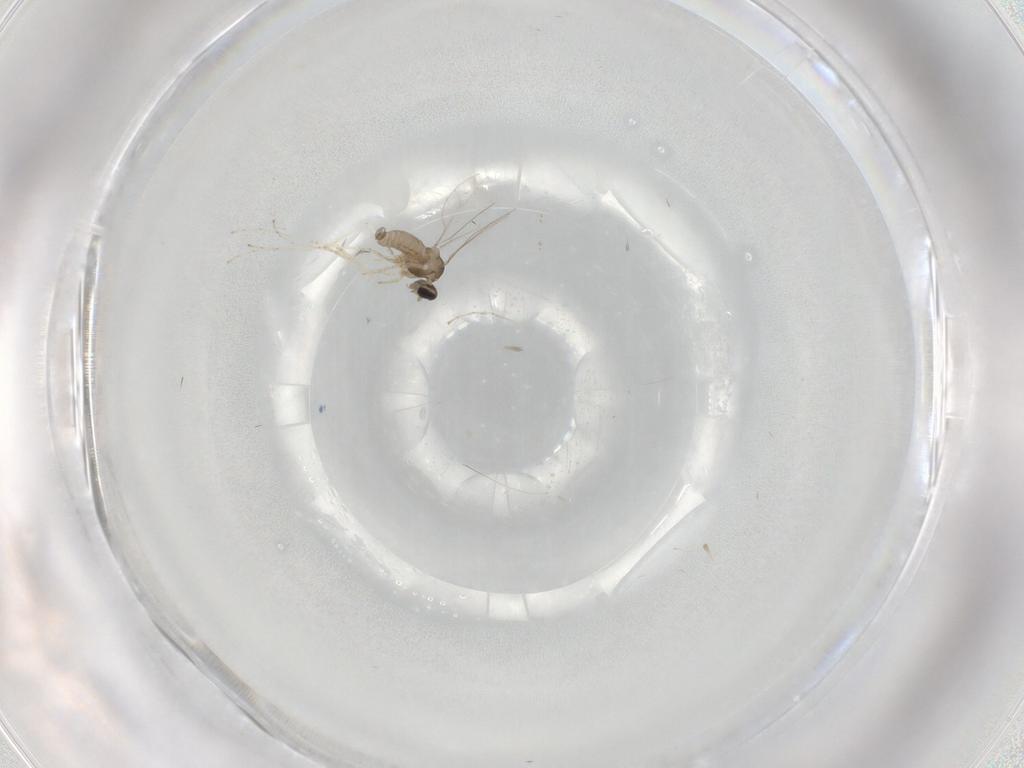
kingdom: Animalia
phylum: Arthropoda
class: Insecta
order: Diptera
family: Cecidomyiidae
